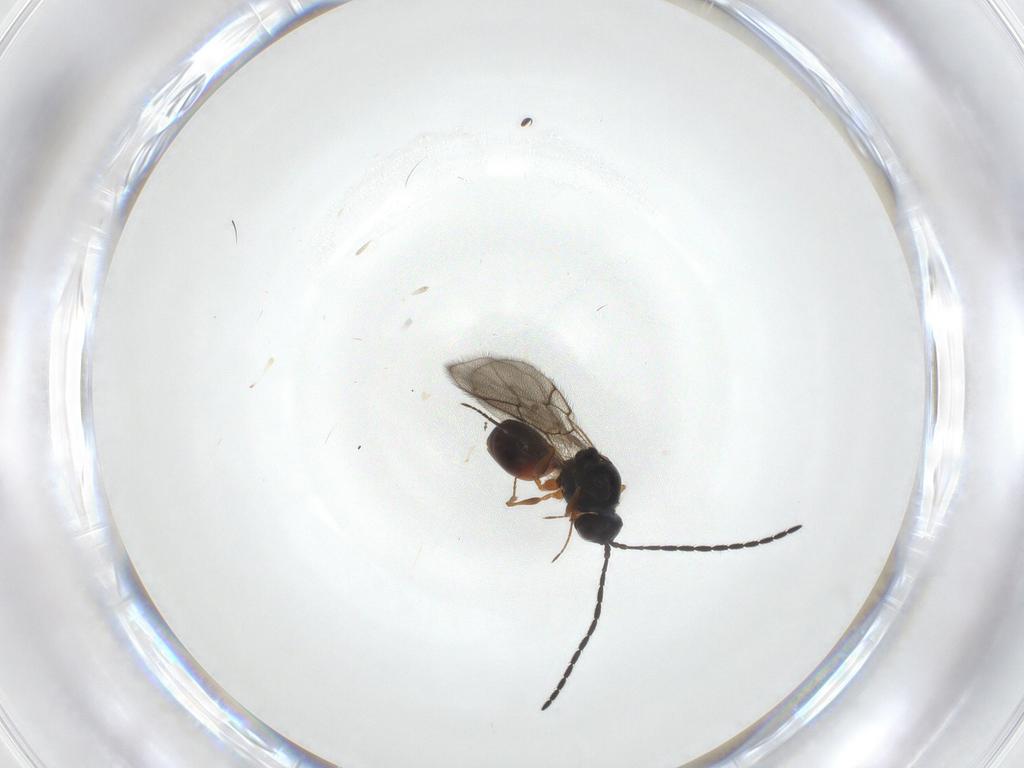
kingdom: Animalia
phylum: Arthropoda
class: Insecta
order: Hymenoptera
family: Figitidae
